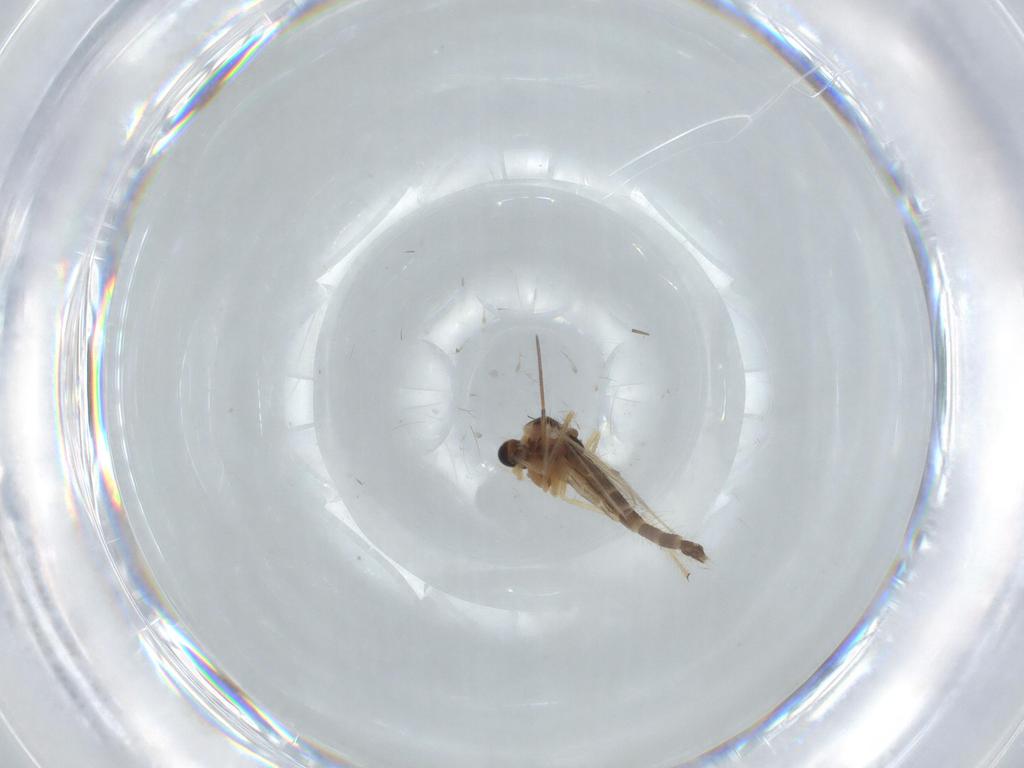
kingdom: Animalia
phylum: Arthropoda
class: Insecta
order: Diptera
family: Chironomidae
